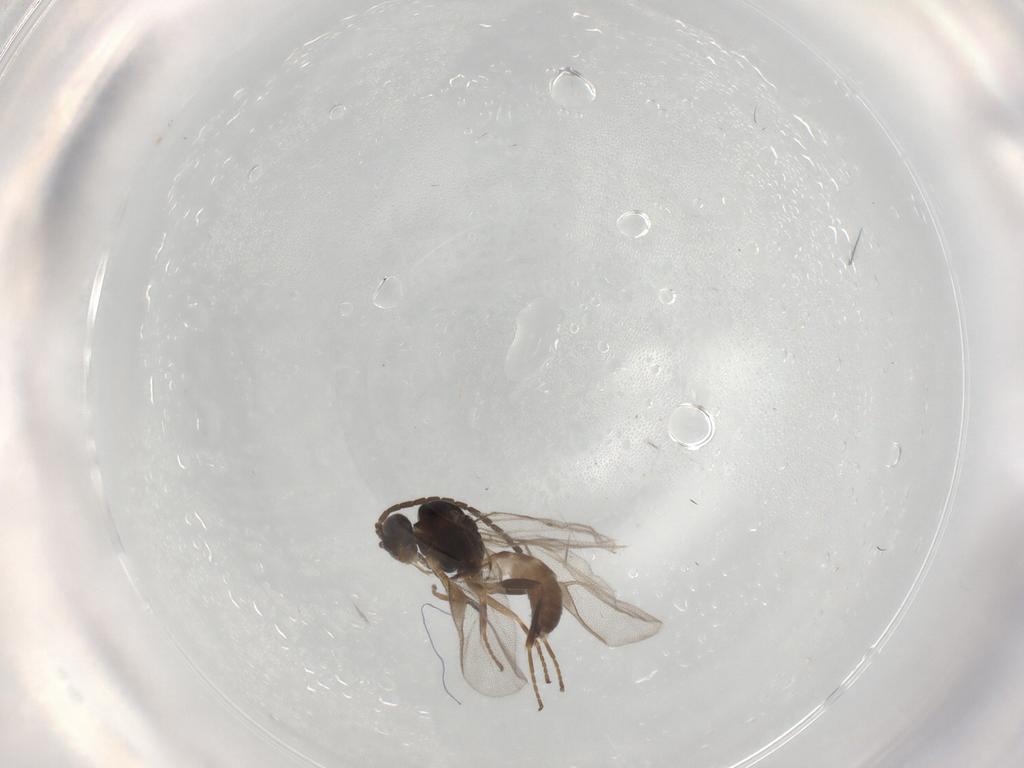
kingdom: Animalia
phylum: Arthropoda
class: Insecta
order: Hymenoptera
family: Braconidae
